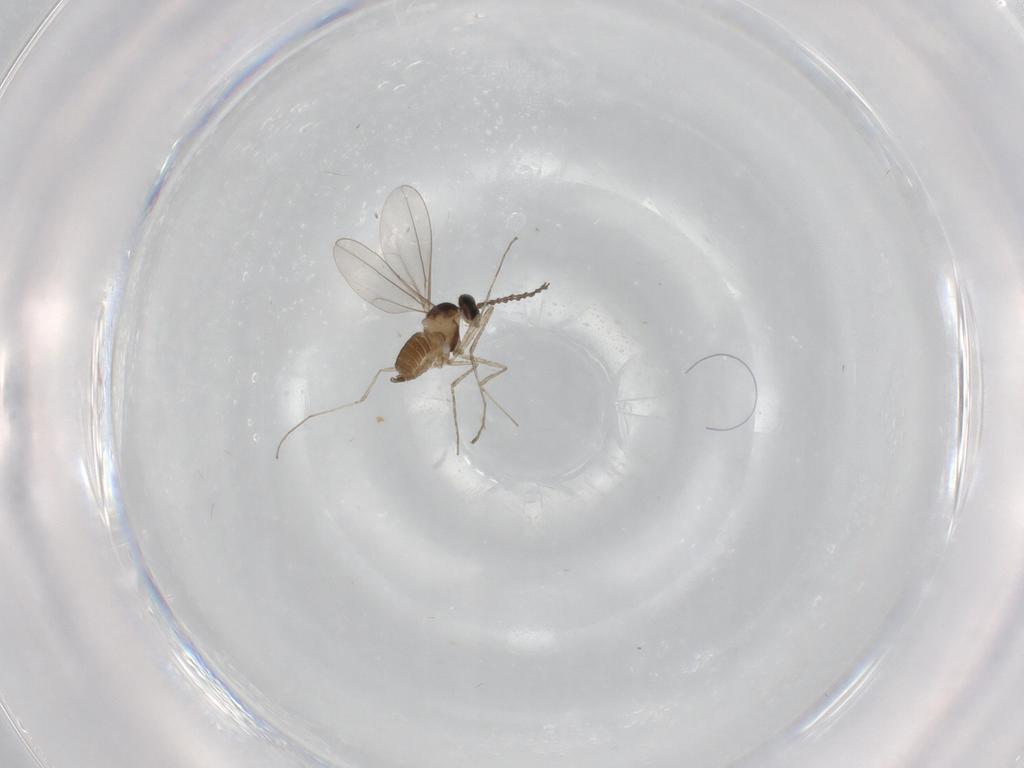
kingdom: Animalia
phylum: Arthropoda
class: Insecta
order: Diptera
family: Cecidomyiidae
